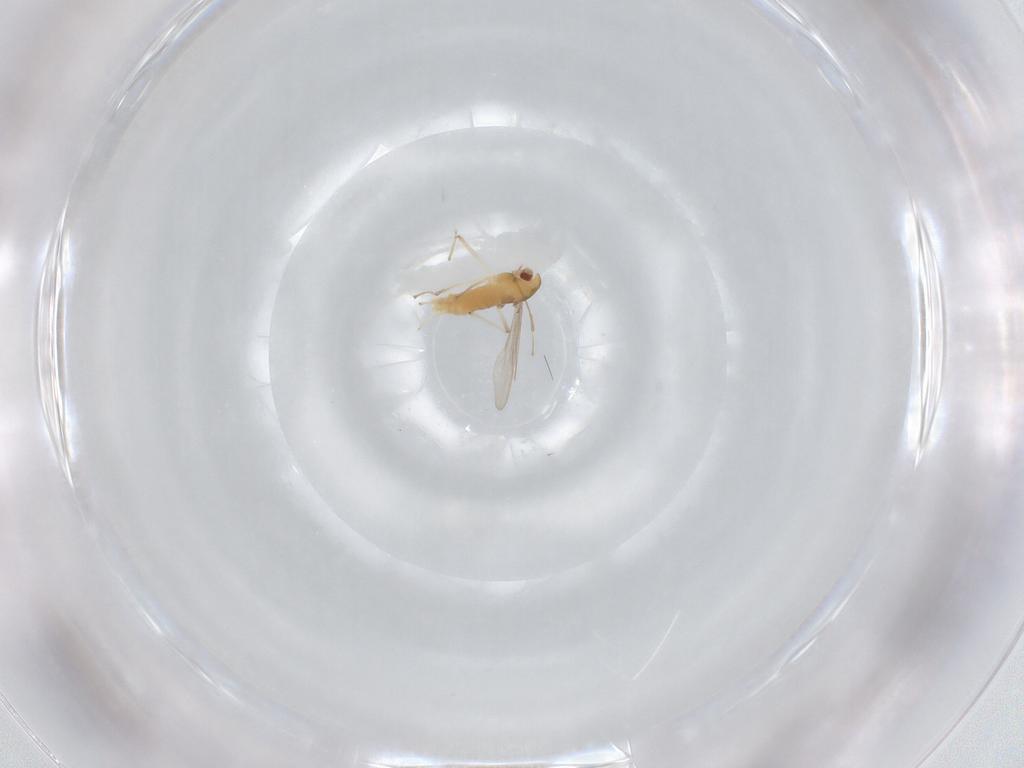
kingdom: Animalia
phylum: Arthropoda
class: Insecta
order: Diptera
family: Chironomidae
